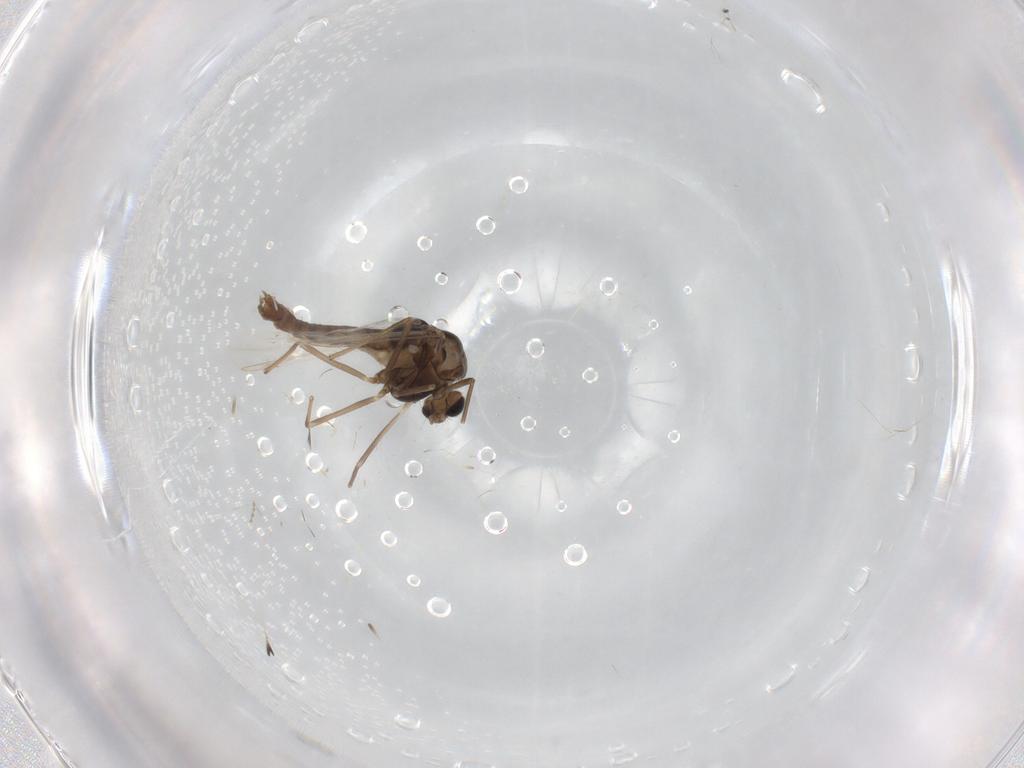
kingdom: Animalia
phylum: Arthropoda
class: Insecta
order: Diptera
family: Chironomidae
